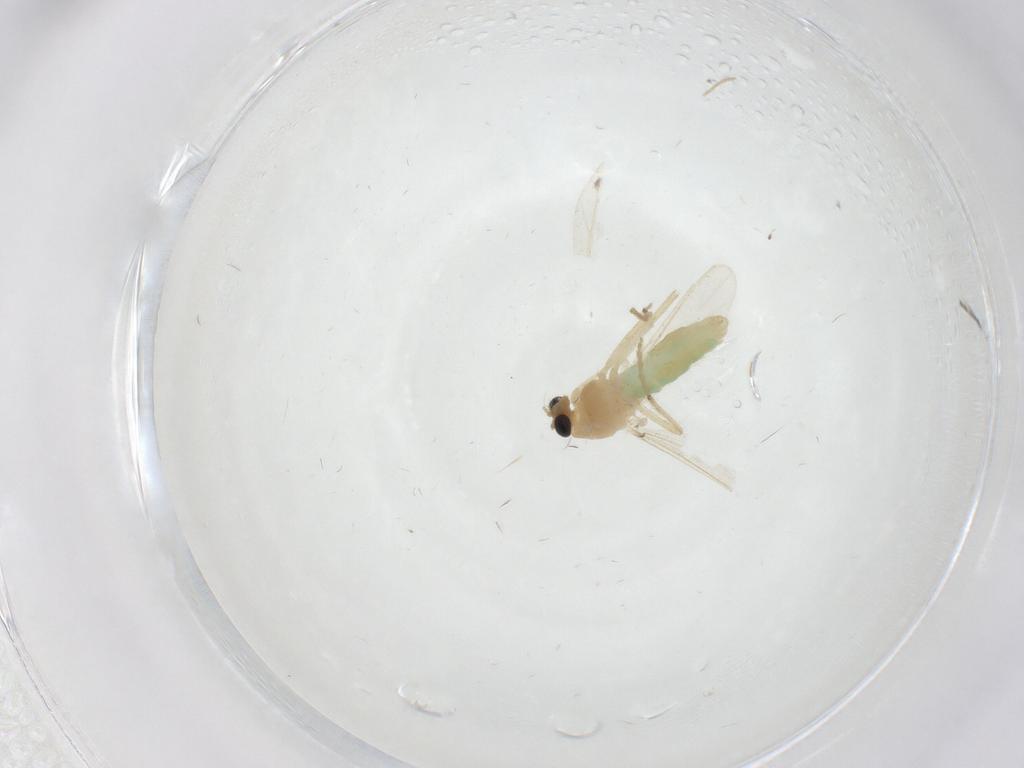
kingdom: Animalia
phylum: Arthropoda
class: Insecta
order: Diptera
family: Chironomidae
